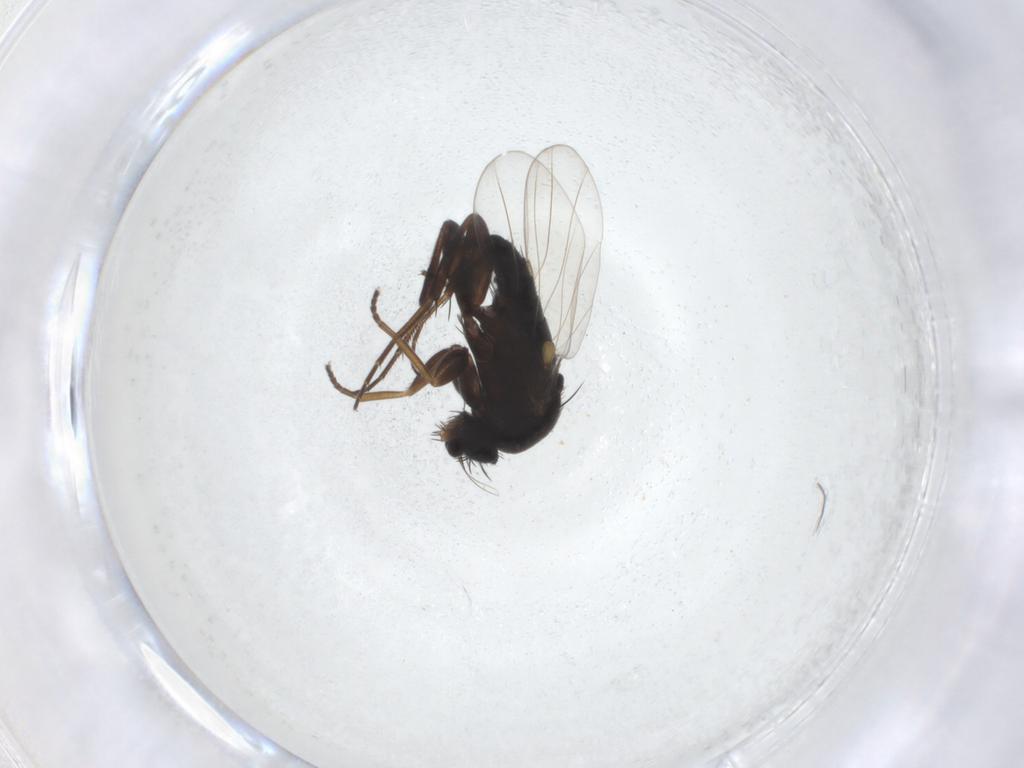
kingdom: Animalia
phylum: Arthropoda
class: Insecta
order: Diptera
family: Phoridae
